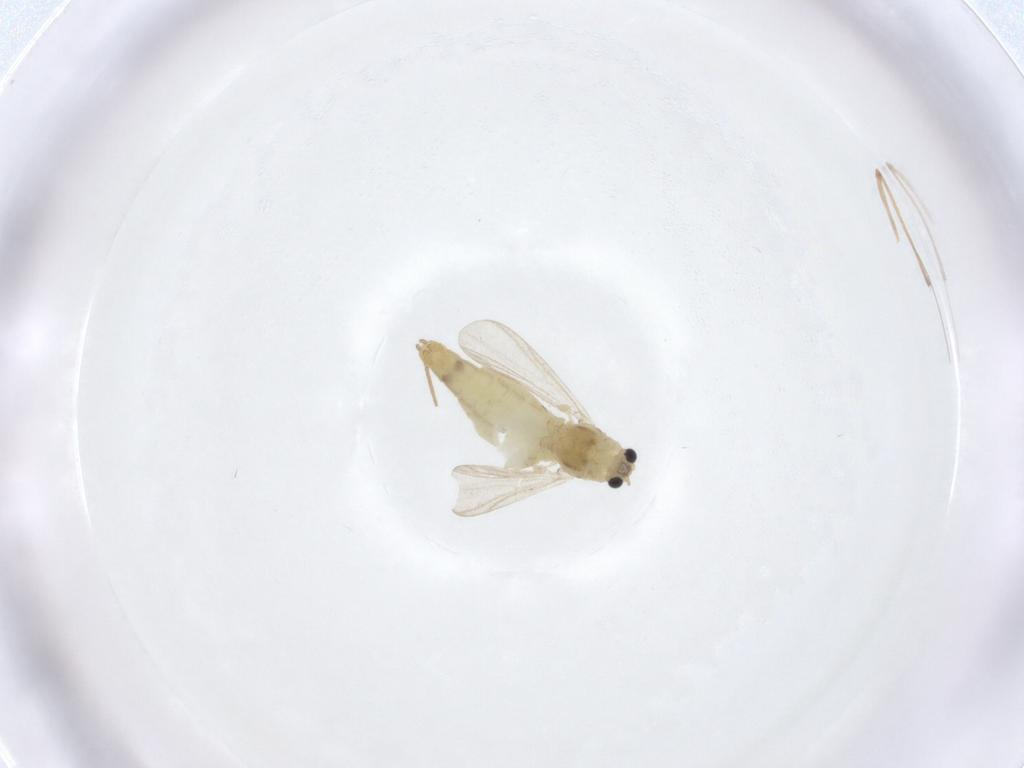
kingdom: Animalia
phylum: Arthropoda
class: Insecta
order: Diptera
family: Chironomidae
